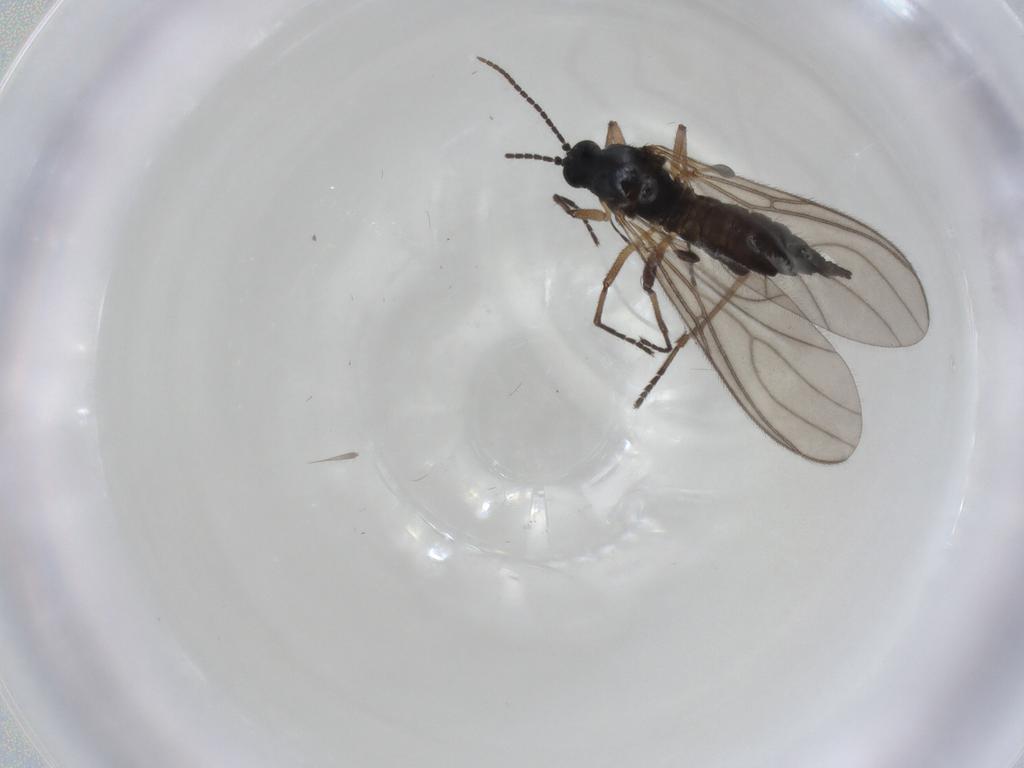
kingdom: Animalia
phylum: Arthropoda
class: Insecta
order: Diptera
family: Sciaridae
